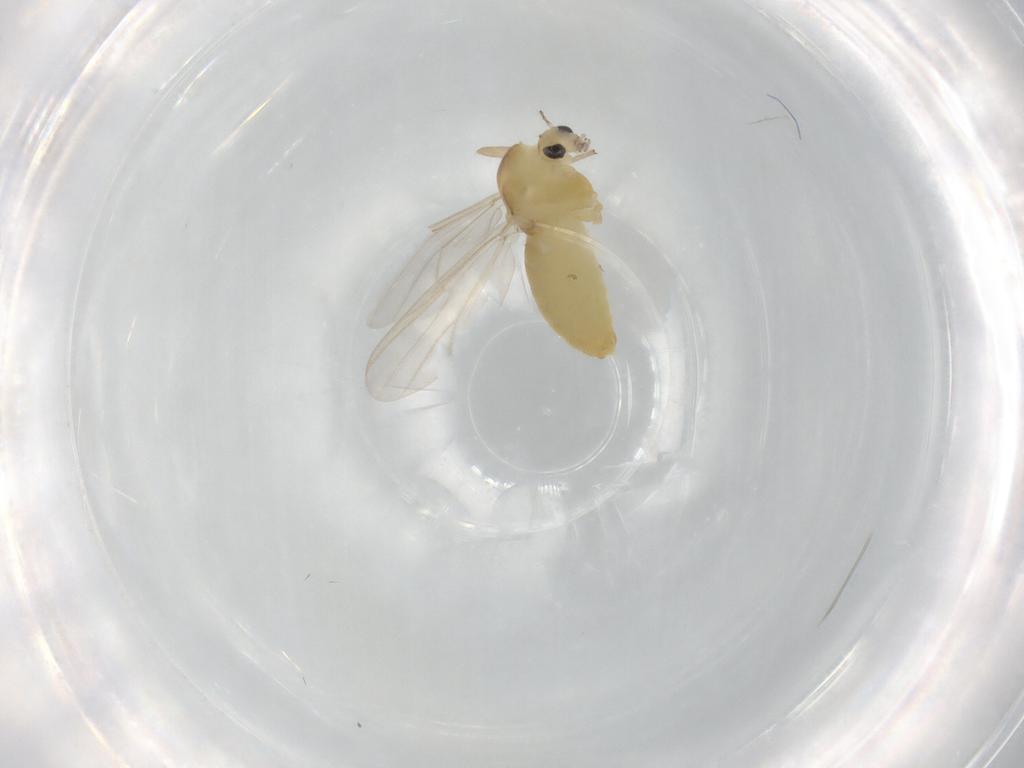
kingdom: Animalia
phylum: Arthropoda
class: Insecta
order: Diptera
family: Chironomidae
